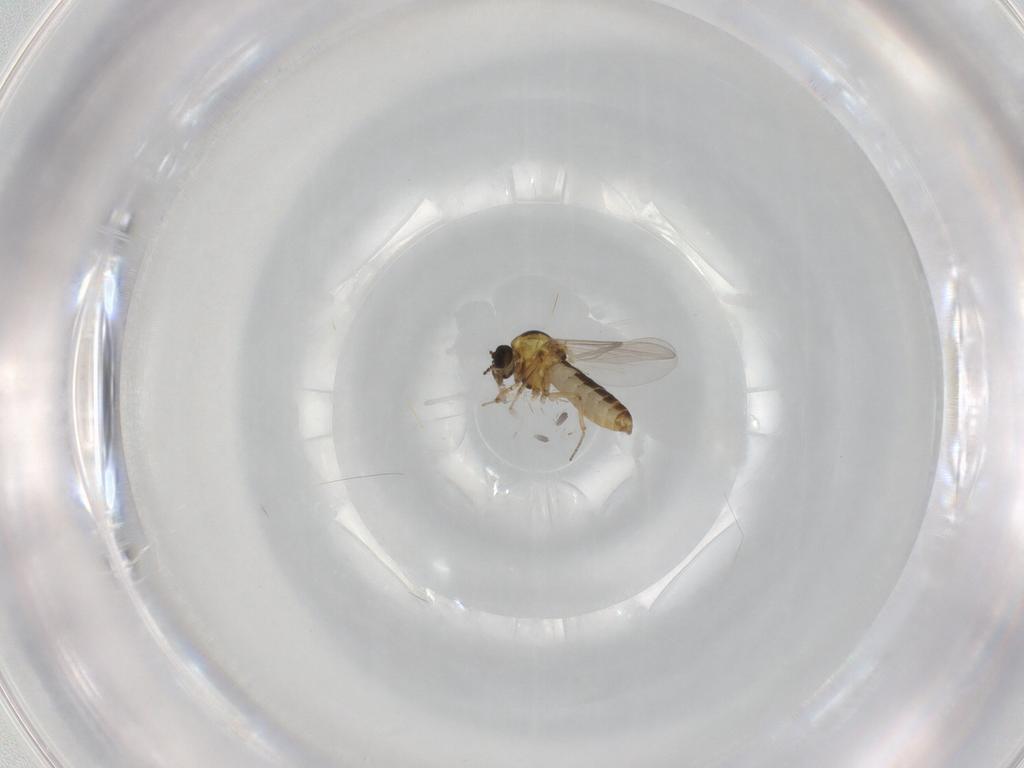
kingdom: Animalia
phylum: Arthropoda
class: Insecta
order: Diptera
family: Ceratopogonidae
